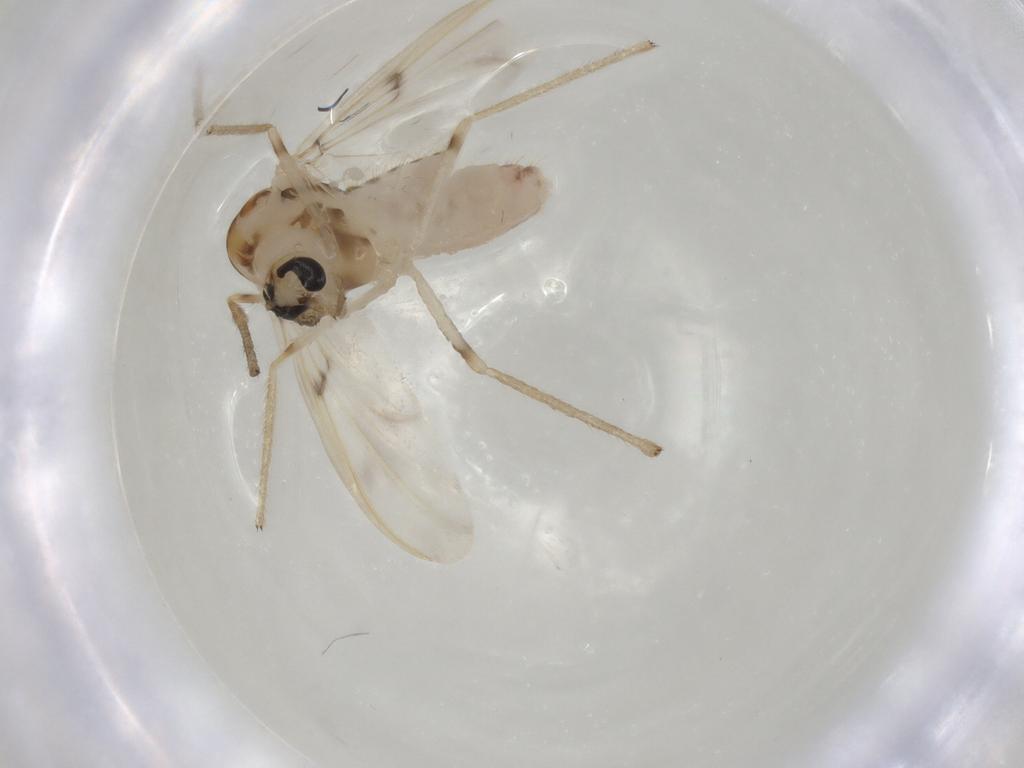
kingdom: Animalia
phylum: Arthropoda
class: Insecta
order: Diptera
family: Chironomidae
